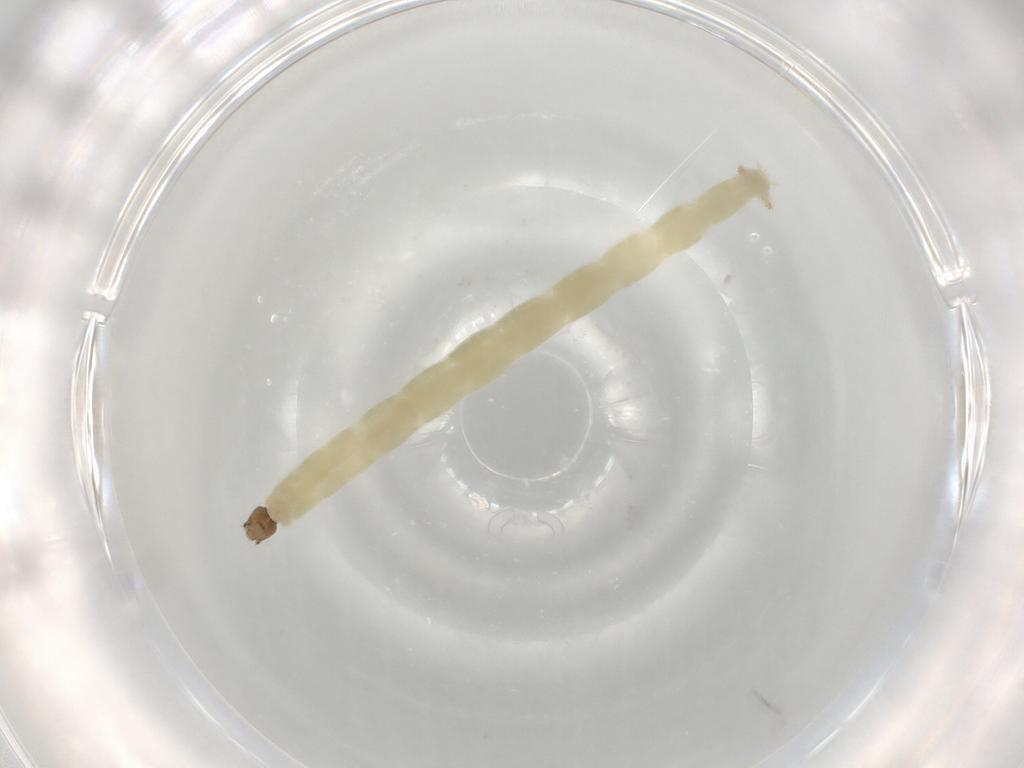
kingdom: Animalia
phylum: Arthropoda
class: Insecta
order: Diptera
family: Chironomidae
